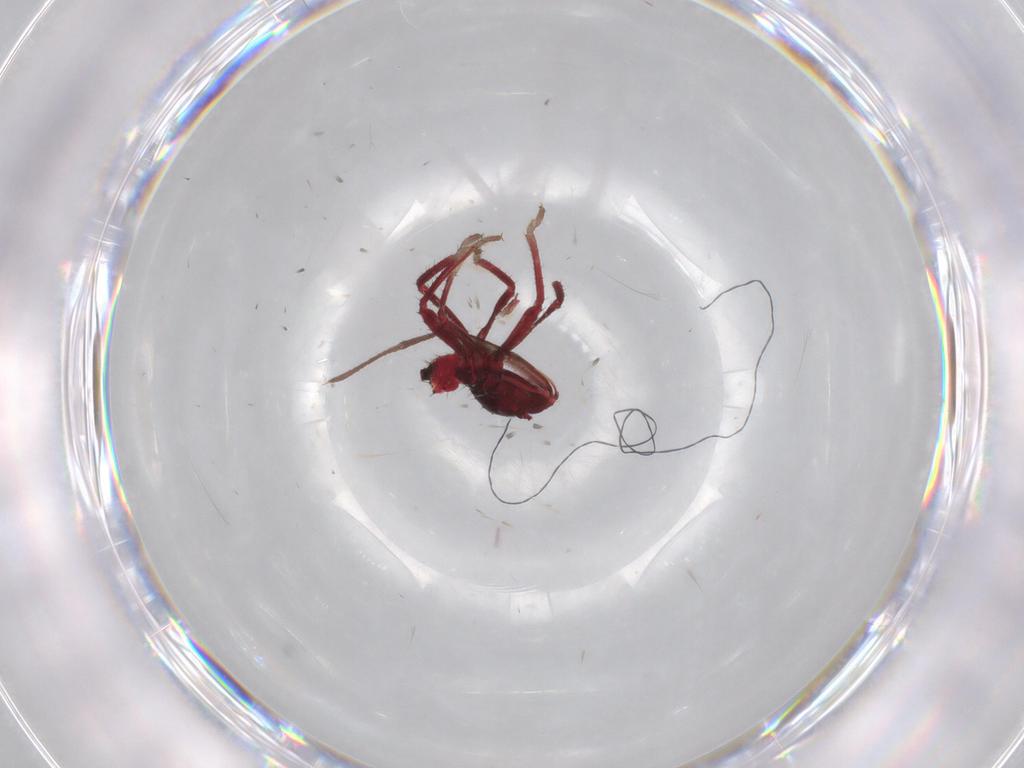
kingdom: Animalia
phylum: Arthropoda
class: Insecta
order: Hemiptera
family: Coreidae
